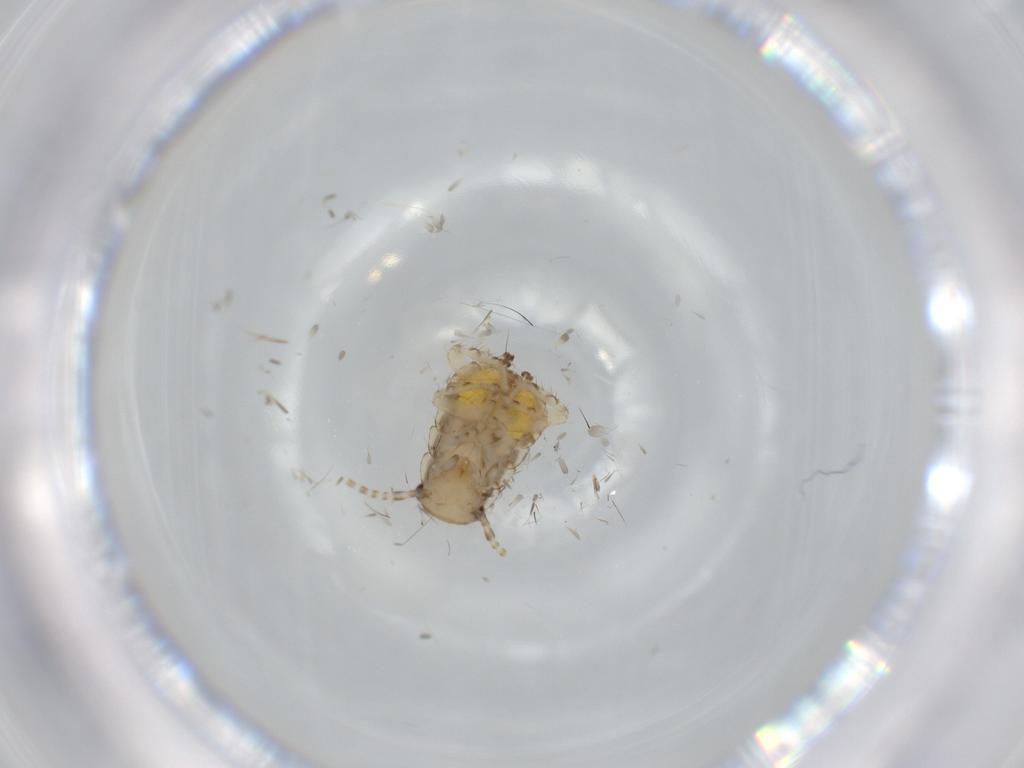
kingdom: Animalia
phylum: Arthropoda
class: Insecta
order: Blattodea
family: Ectobiidae
